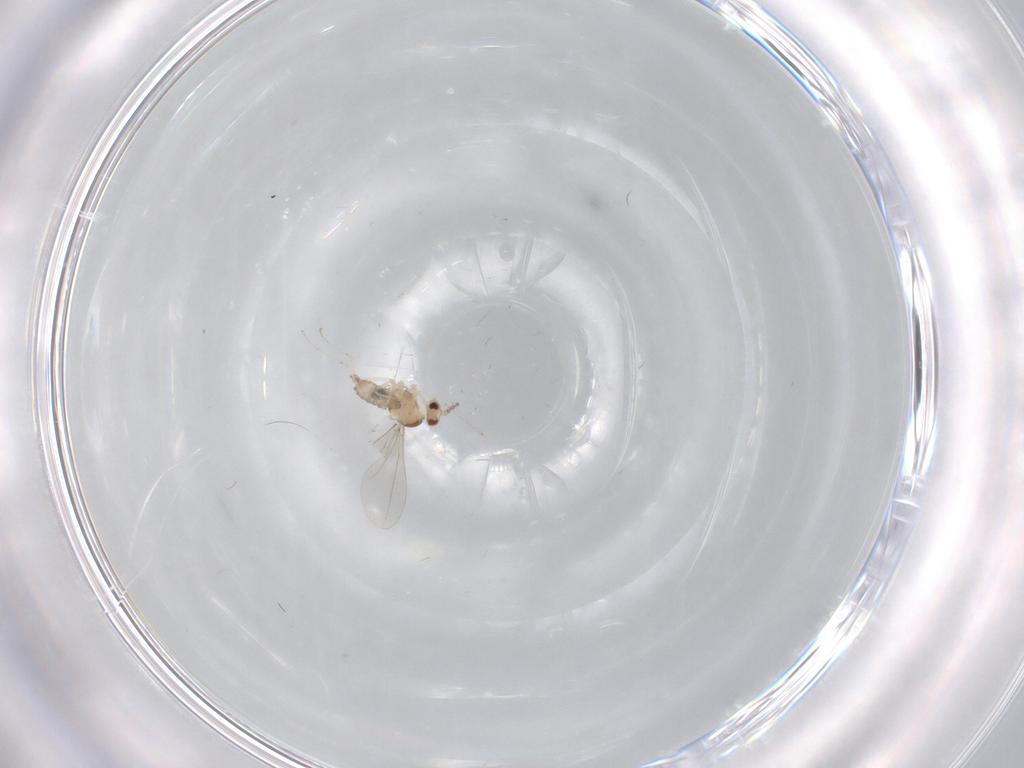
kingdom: Animalia
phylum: Arthropoda
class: Insecta
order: Diptera
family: Cecidomyiidae
